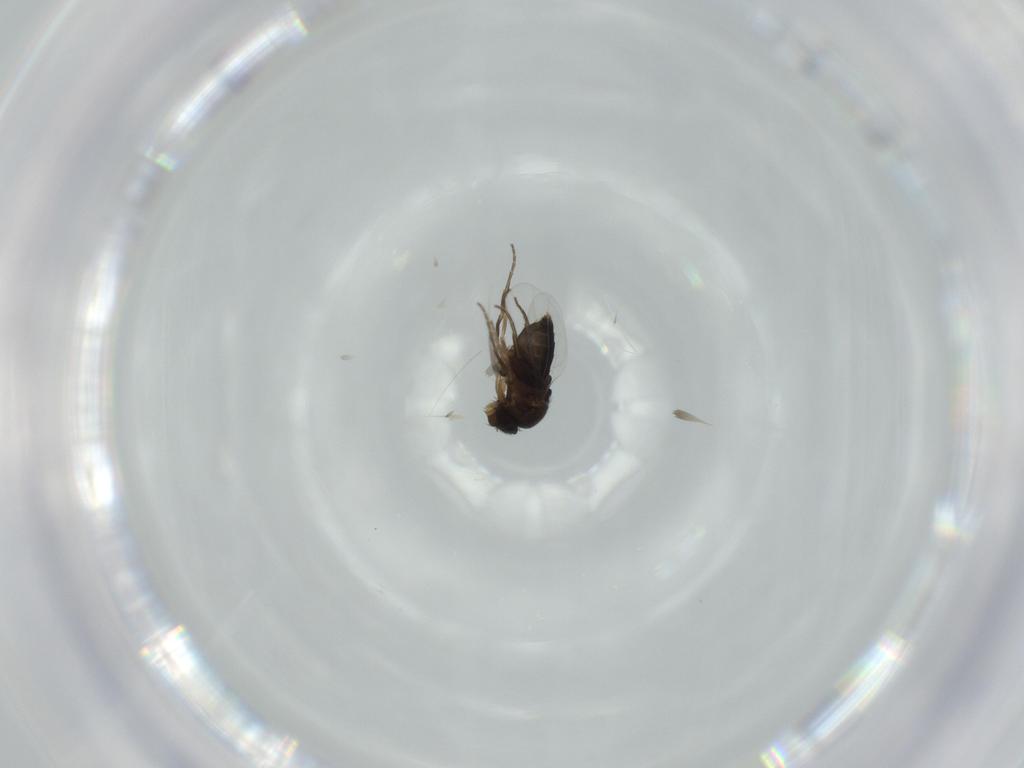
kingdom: Animalia
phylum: Arthropoda
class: Insecta
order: Diptera
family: Phoridae
